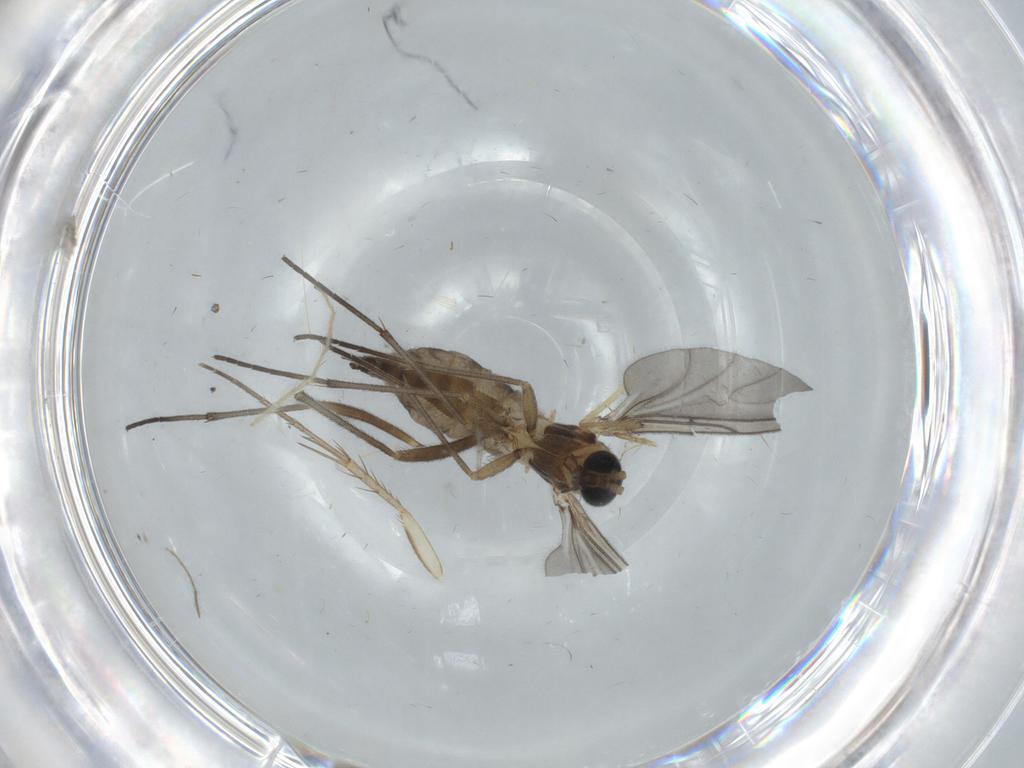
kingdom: Animalia
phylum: Arthropoda
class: Insecta
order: Diptera
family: Sciaridae
